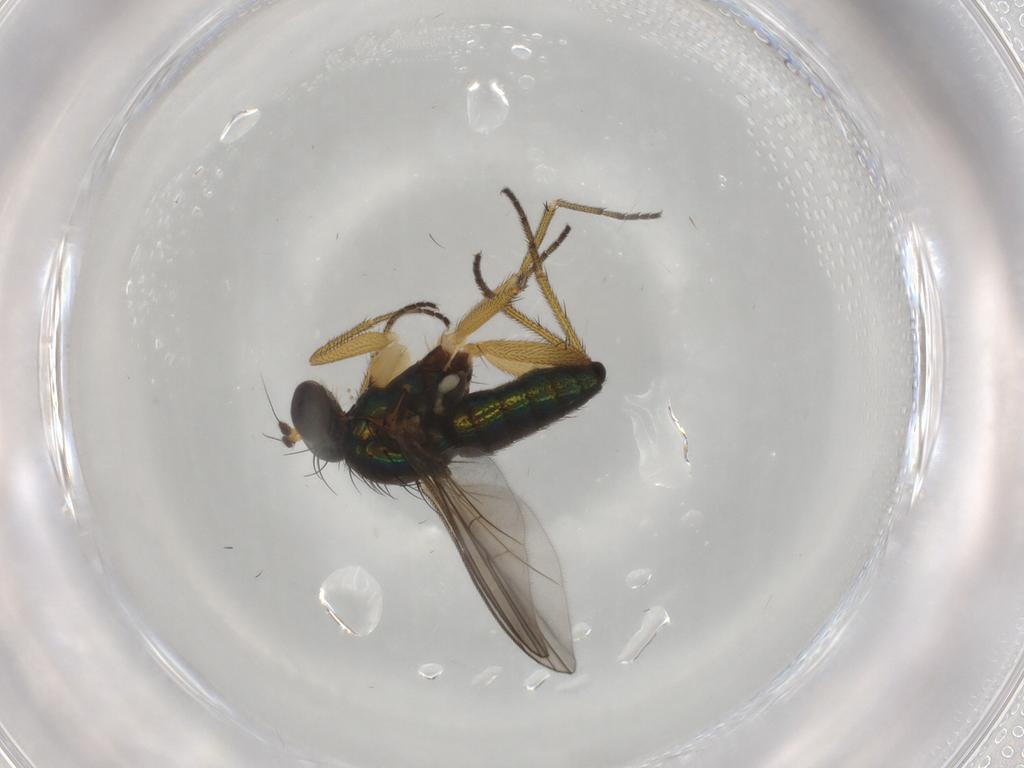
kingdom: Animalia
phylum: Arthropoda
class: Insecta
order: Diptera
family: Dolichopodidae
